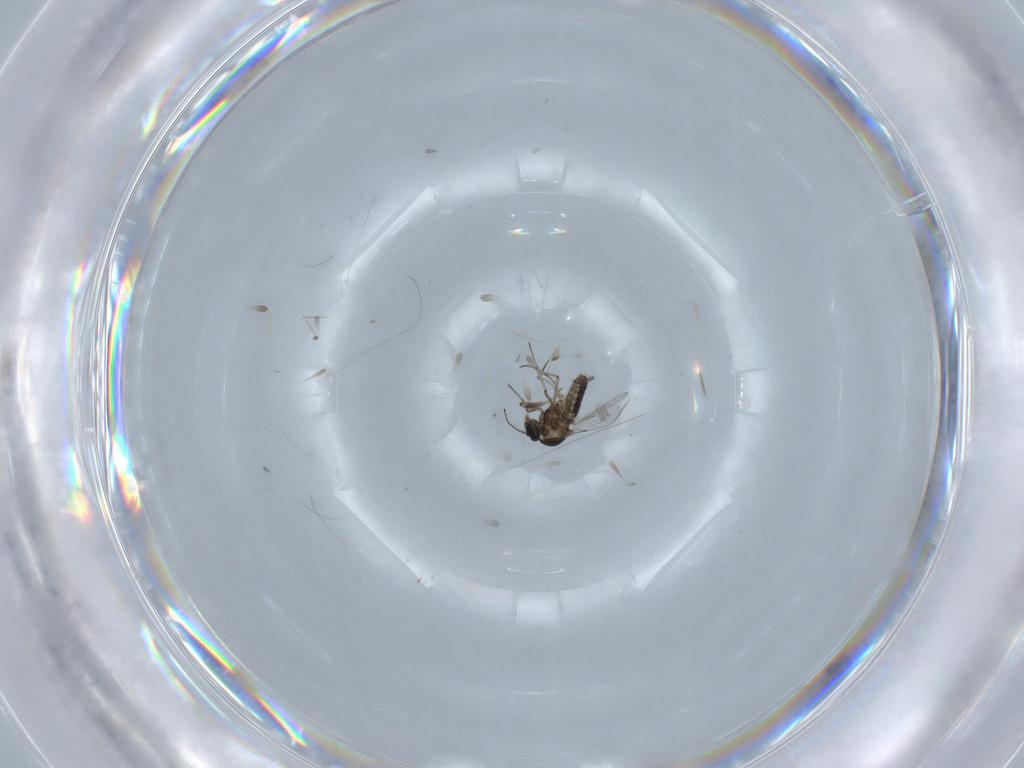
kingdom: Animalia
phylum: Arthropoda
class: Insecta
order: Diptera
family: Ceratopogonidae
